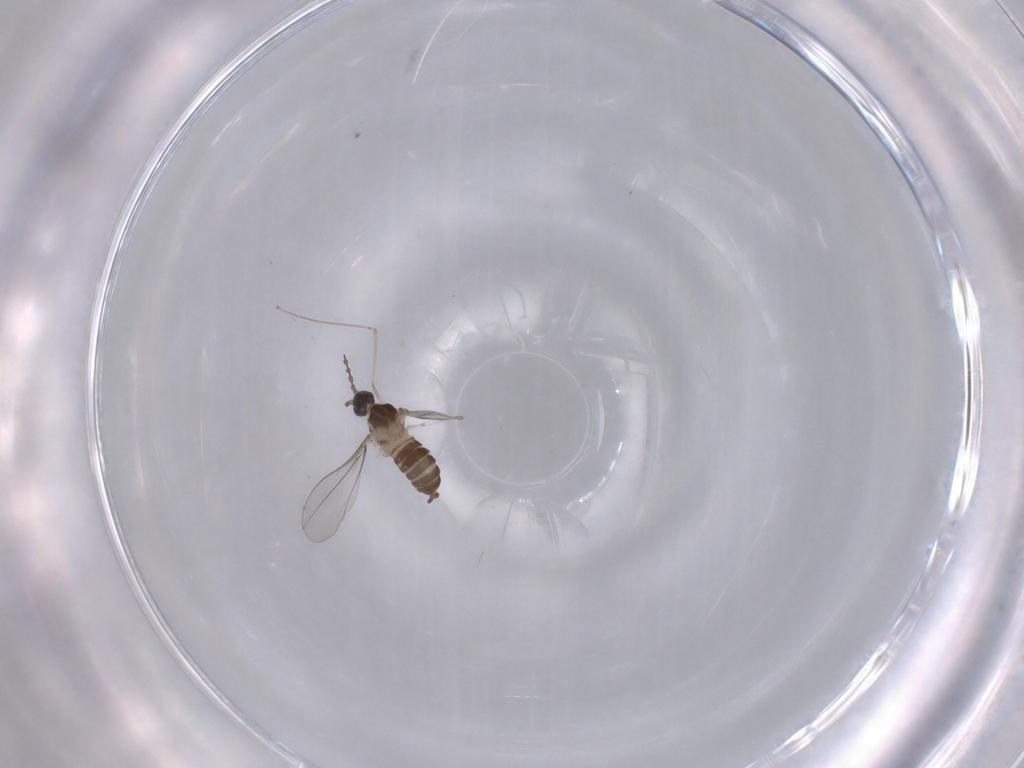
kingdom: Animalia
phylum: Arthropoda
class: Insecta
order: Diptera
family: Cecidomyiidae
